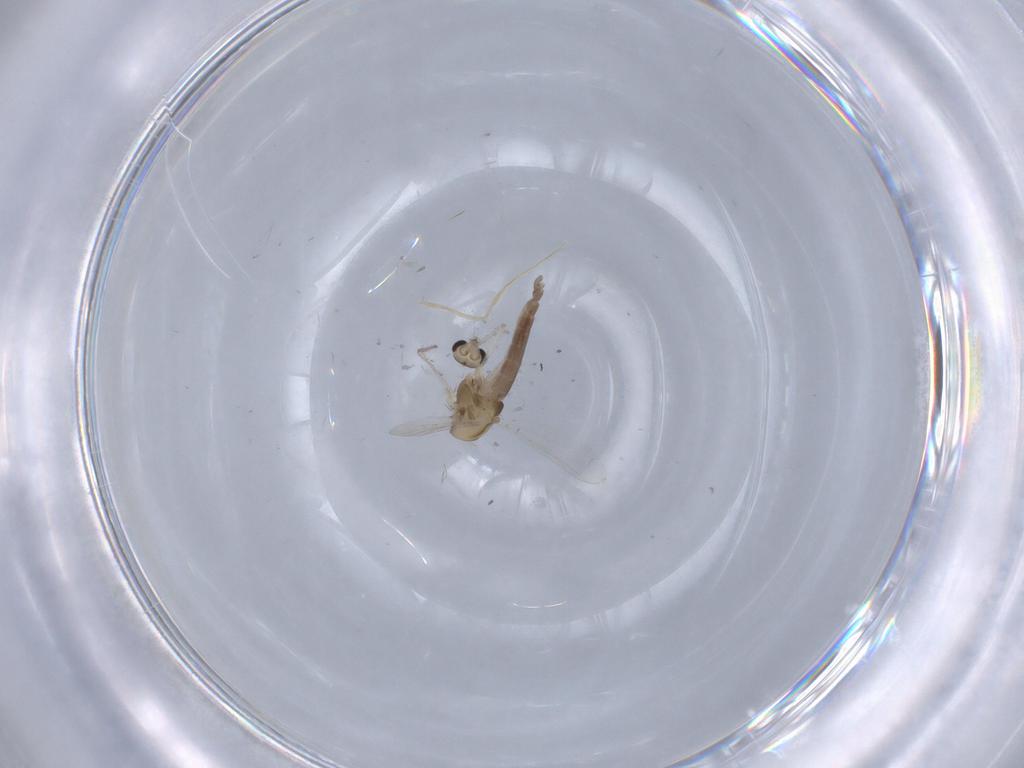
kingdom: Animalia
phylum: Arthropoda
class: Insecta
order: Diptera
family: Chironomidae
